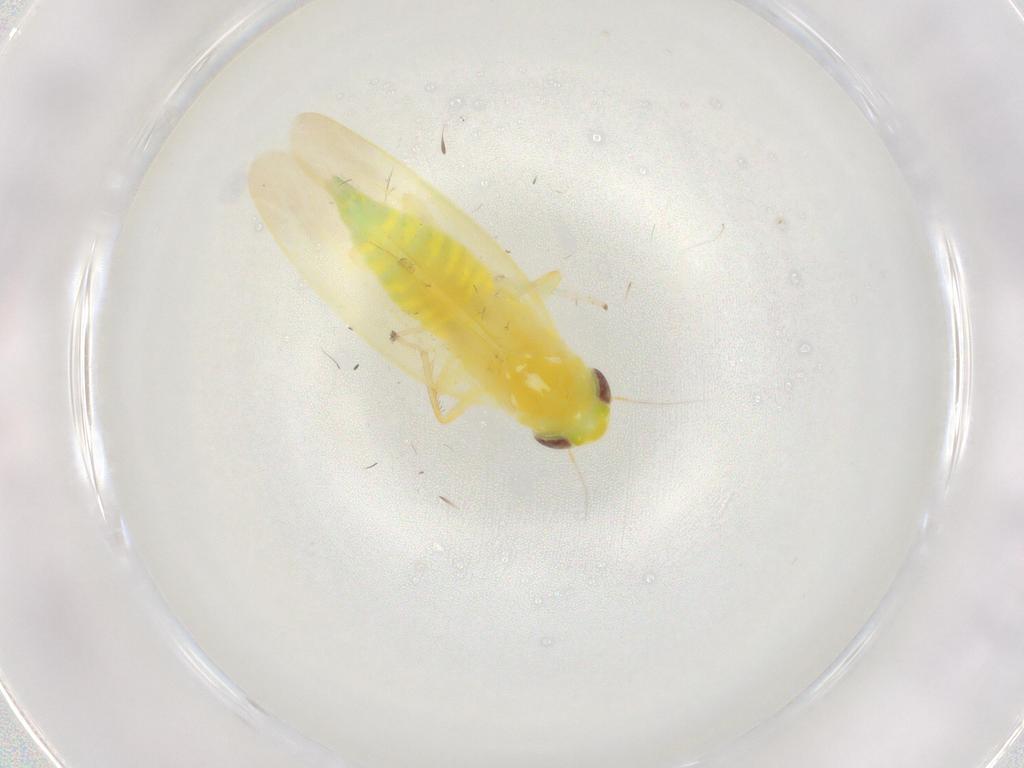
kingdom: Animalia
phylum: Arthropoda
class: Insecta
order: Hemiptera
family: Cicadellidae
